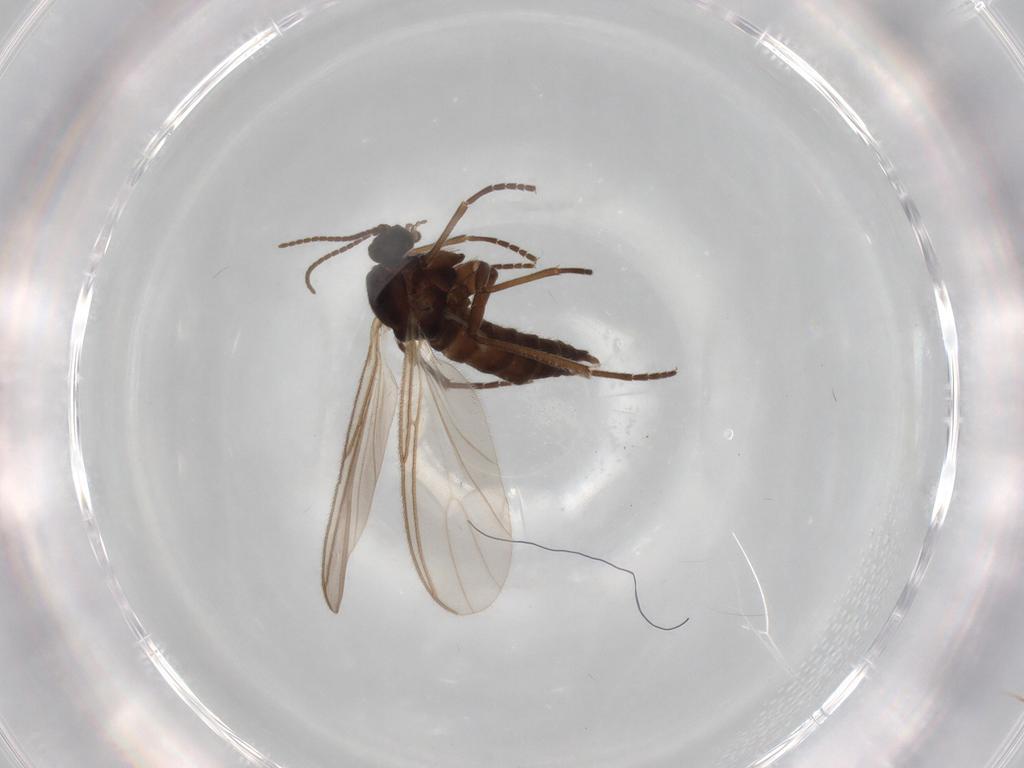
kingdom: Animalia
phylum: Arthropoda
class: Insecta
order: Diptera
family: Sciaridae
